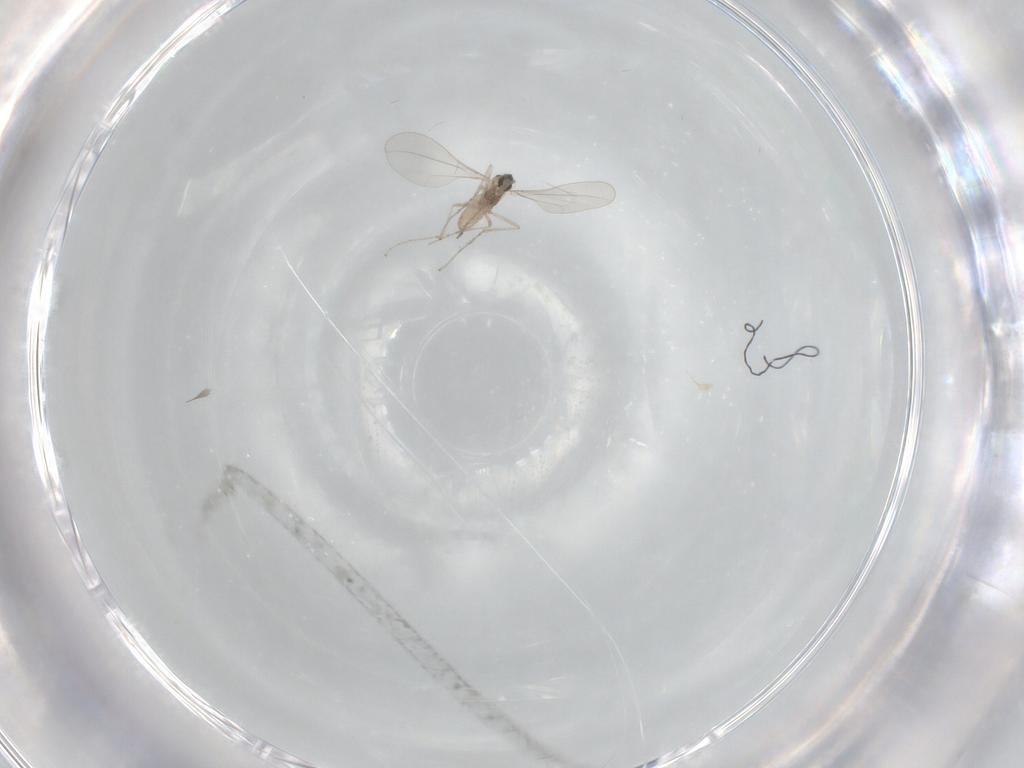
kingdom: Animalia
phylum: Arthropoda
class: Insecta
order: Diptera
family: Cecidomyiidae
